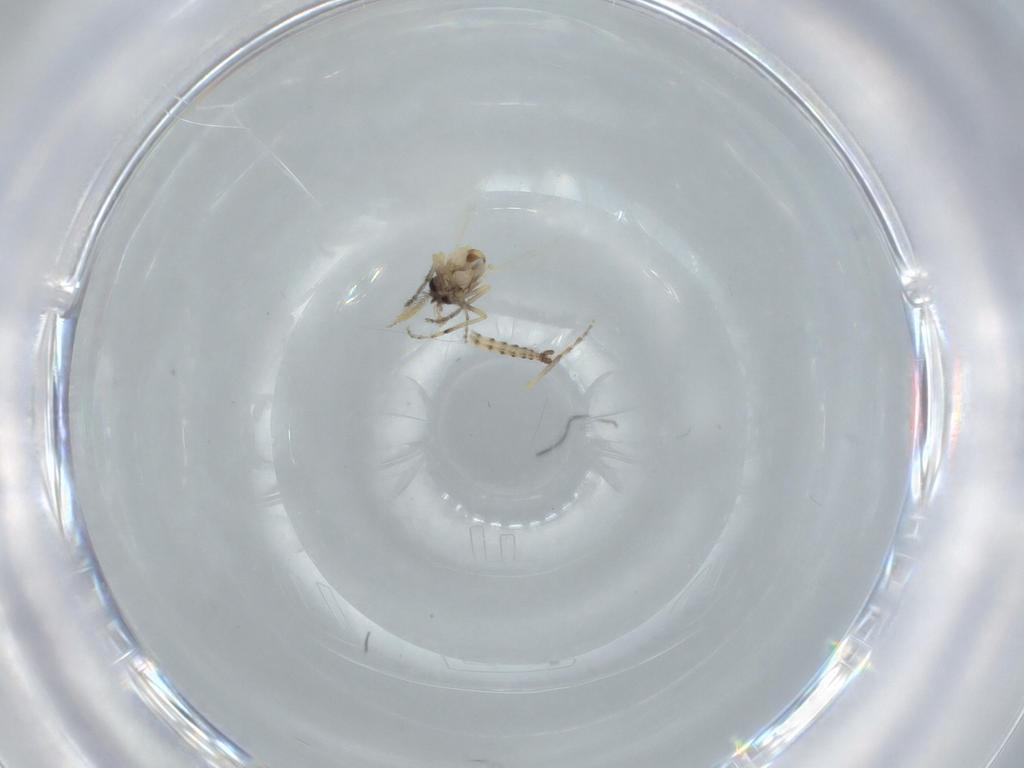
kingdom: Animalia
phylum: Arthropoda
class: Insecta
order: Diptera
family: Ceratopogonidae
